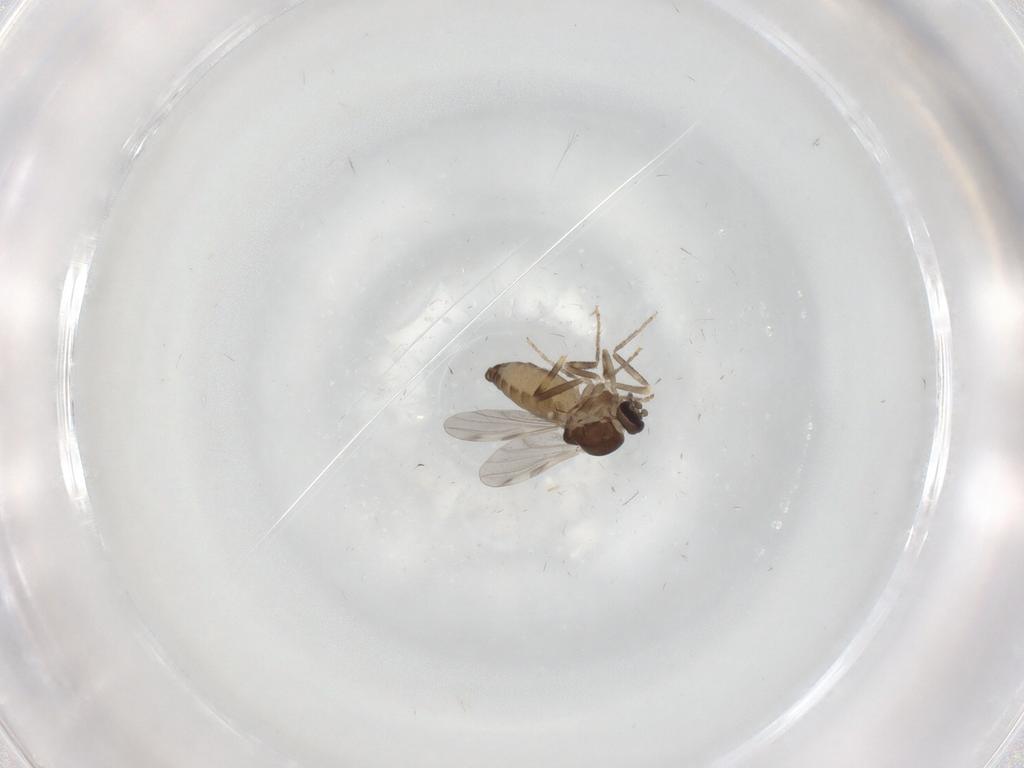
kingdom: Animalia
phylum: Arthropoda
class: Insecta
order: Diptera
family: Ceratopogonidae
